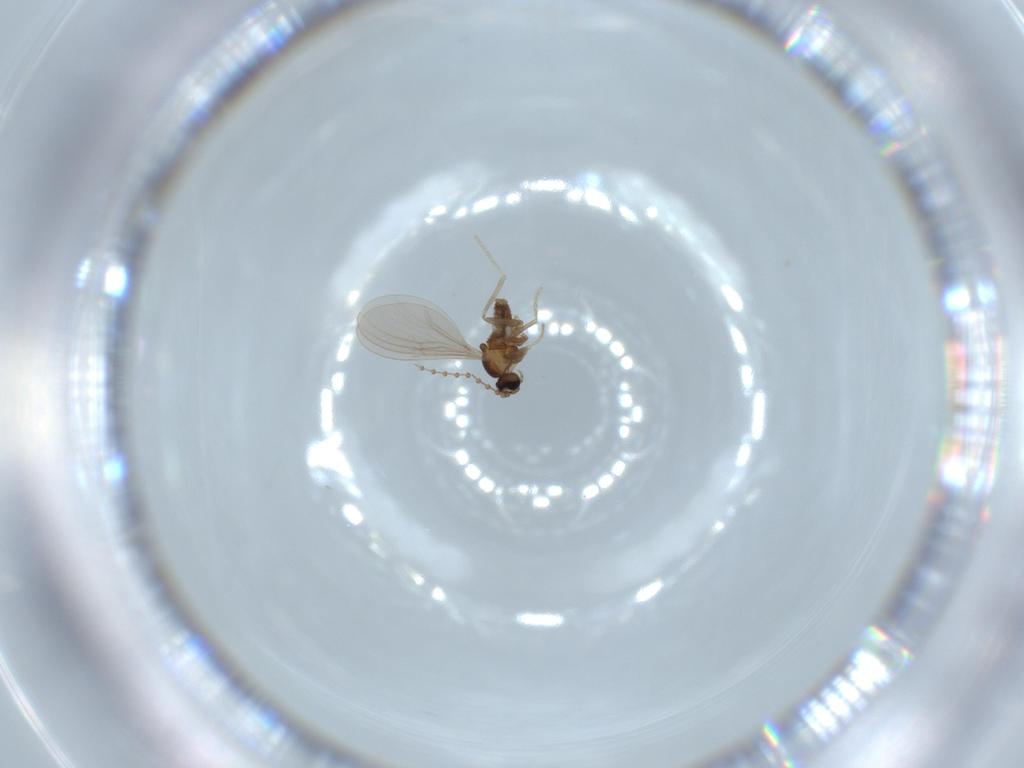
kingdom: Animalia
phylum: Arthropoda
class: Insecta
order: Diptera
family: Cecidomyiidae
